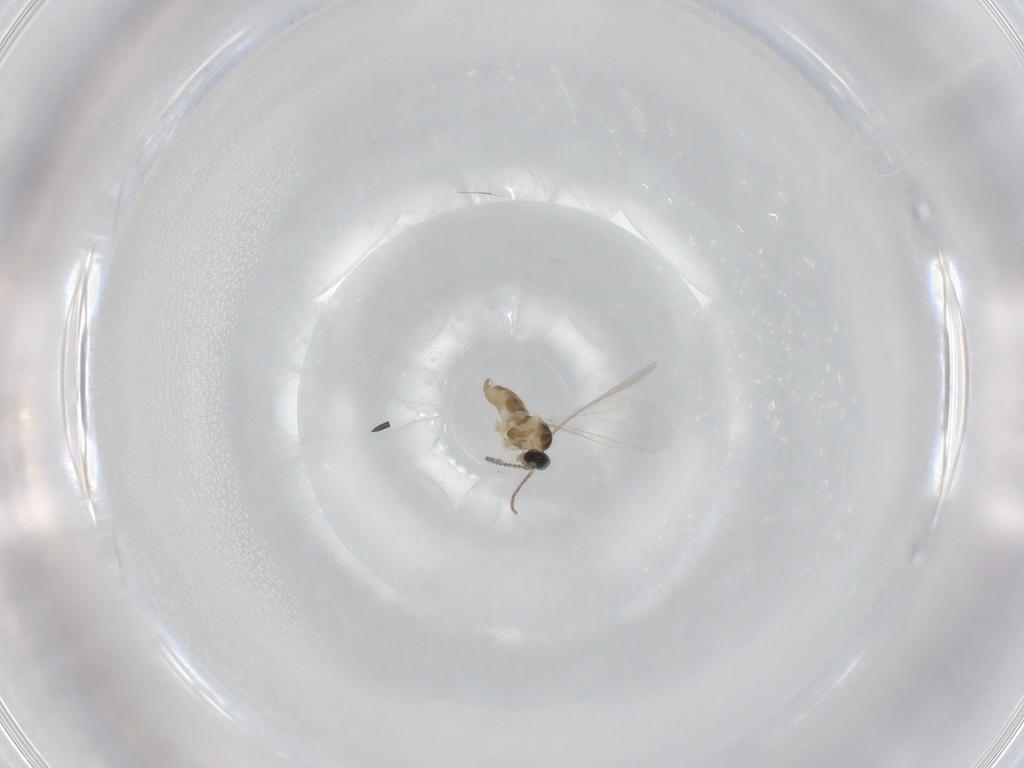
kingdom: Animalia
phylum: Arthropoda
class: Insecta
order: Diptera
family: Cecidomyiidae
